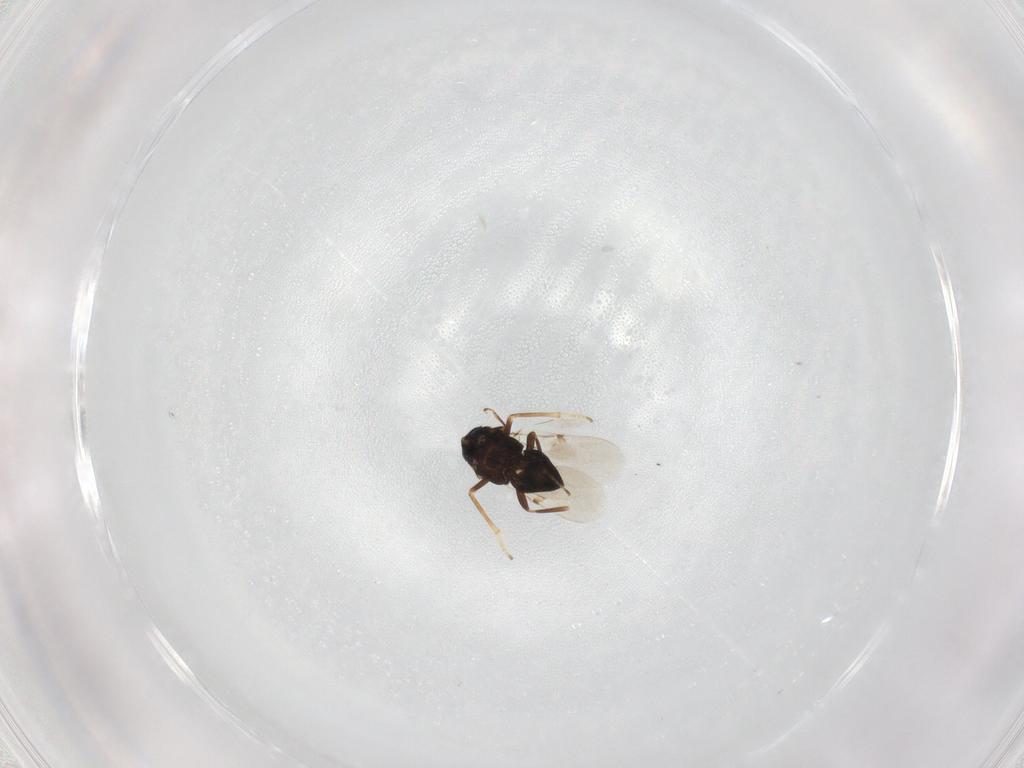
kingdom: Animalia
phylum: Arthropoda
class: Insecta
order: Hymenoptera
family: Encyrtidae
